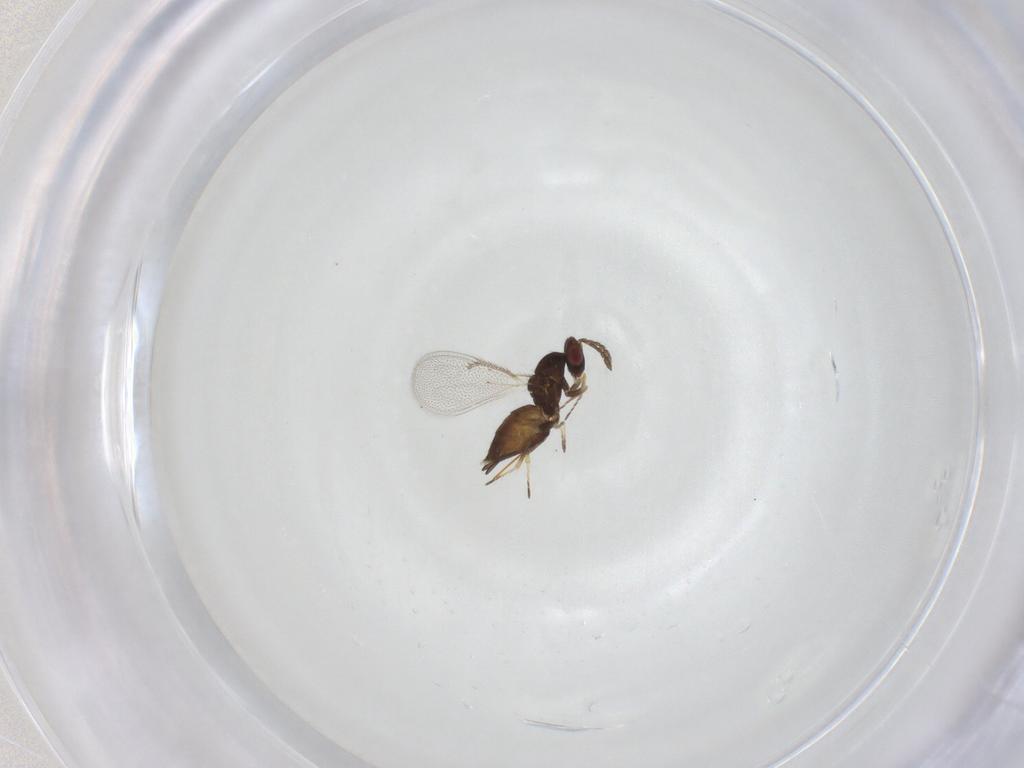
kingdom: Animalia
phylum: Arthropoda
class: Insecta
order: Hymenoptera
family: Eulophidae
